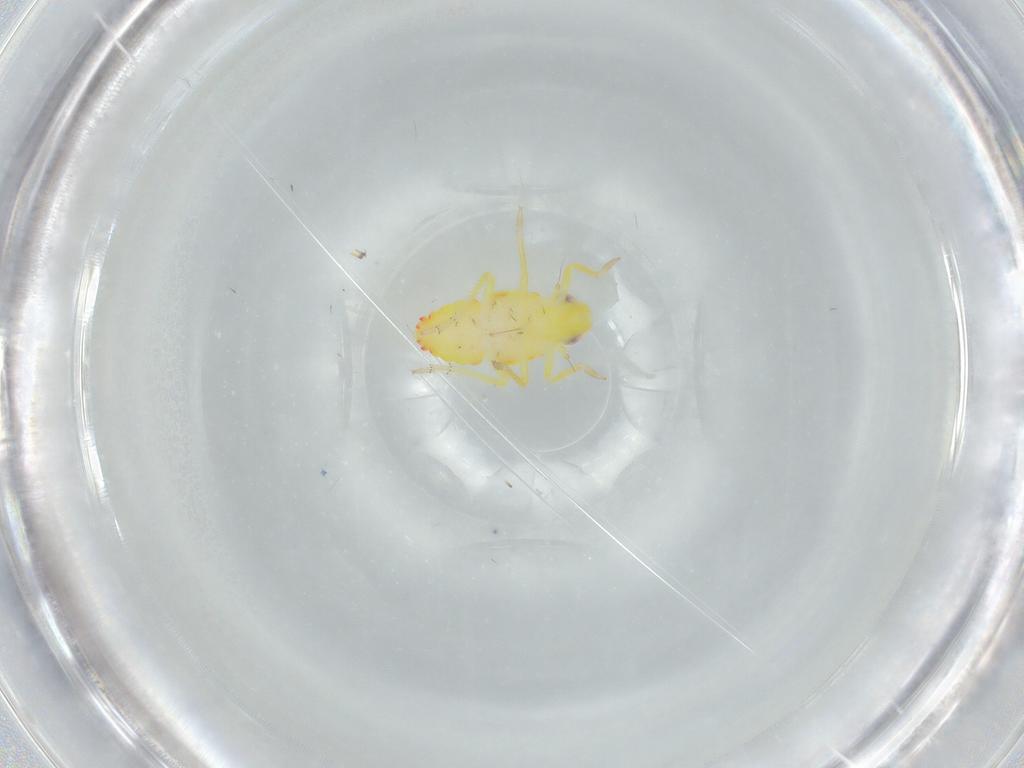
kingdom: Animalia
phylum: Arthropoda
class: Insecta
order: Hemiptera
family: Tropiduchidae
